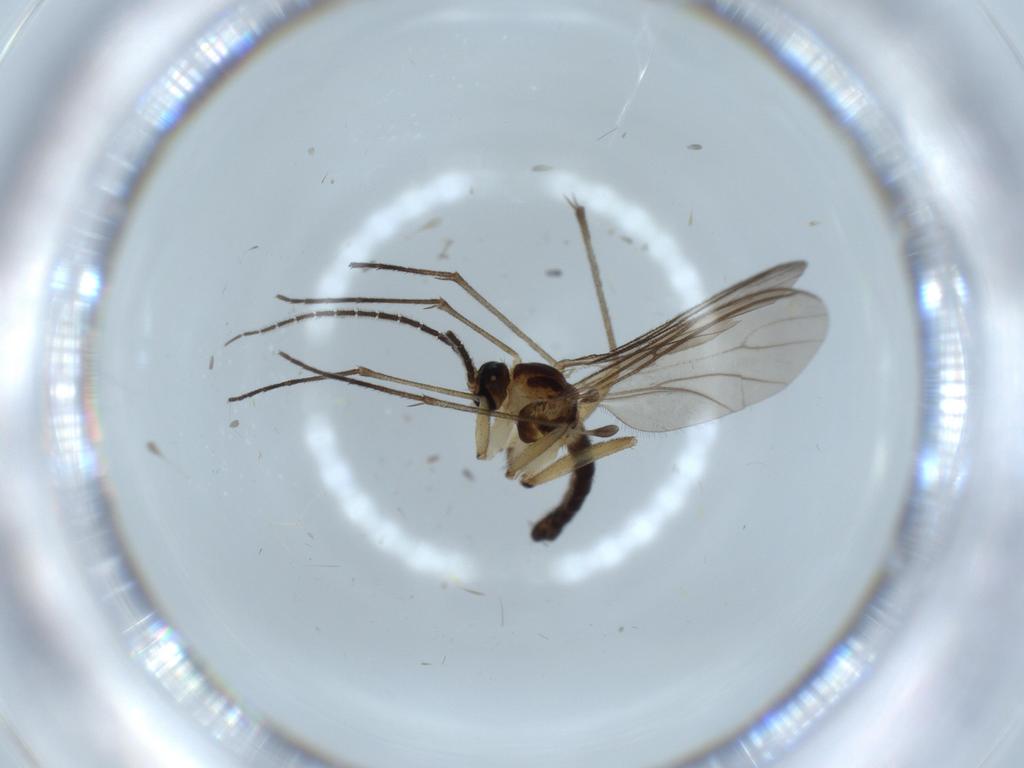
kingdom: Animalia
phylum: Arthropoda
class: Insecta
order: Diptera
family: Sciaridae
